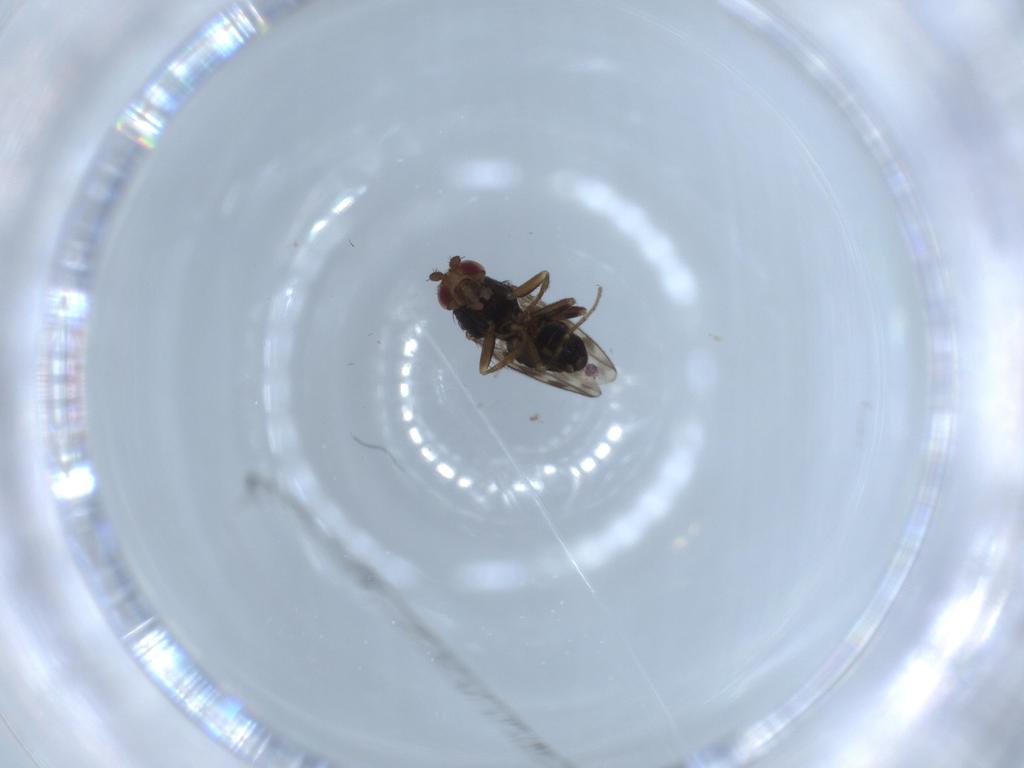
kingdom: Animalia
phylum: Arthropoda
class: Insecta
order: Diptera
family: Sphaeroceridae
